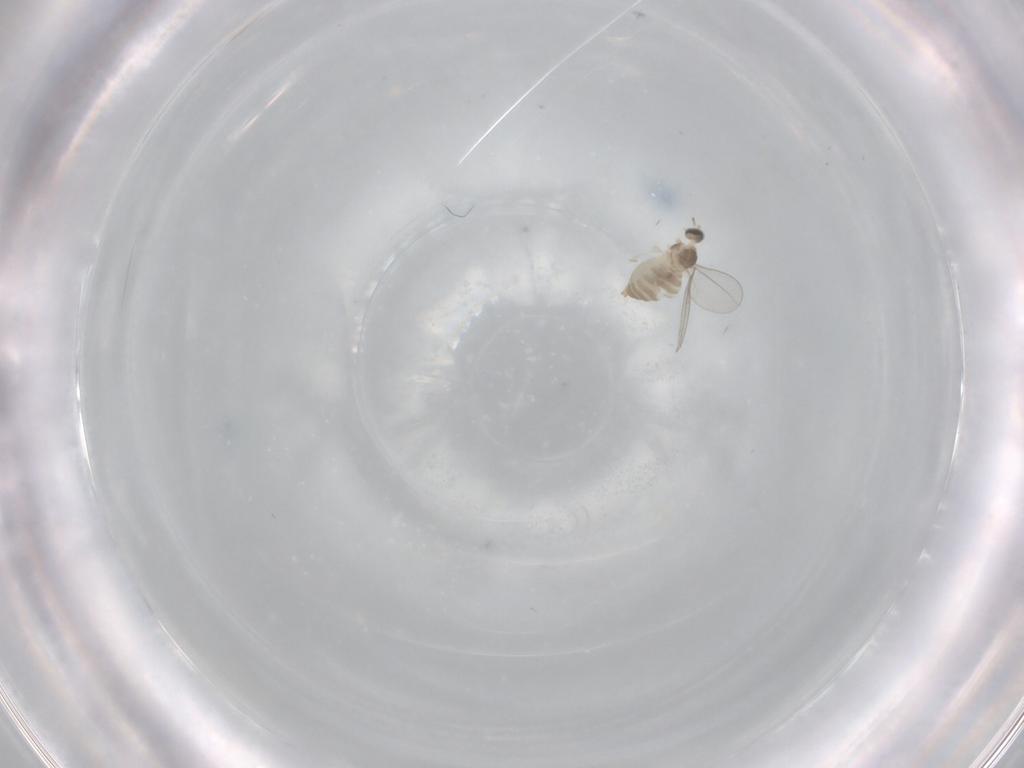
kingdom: Animalia
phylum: Arthropoda
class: Insecta
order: Diptera
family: Cecidomyiidae
